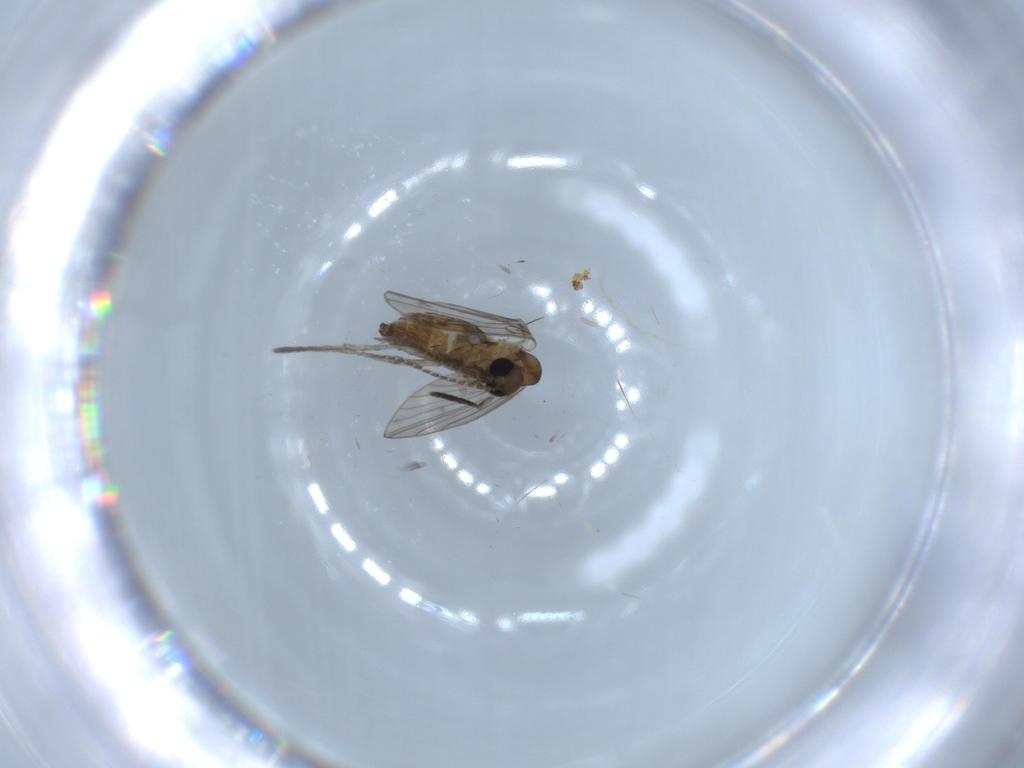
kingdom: Animalia
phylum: Arthropoda
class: Insecta
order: Diptera
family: Psychodidae
